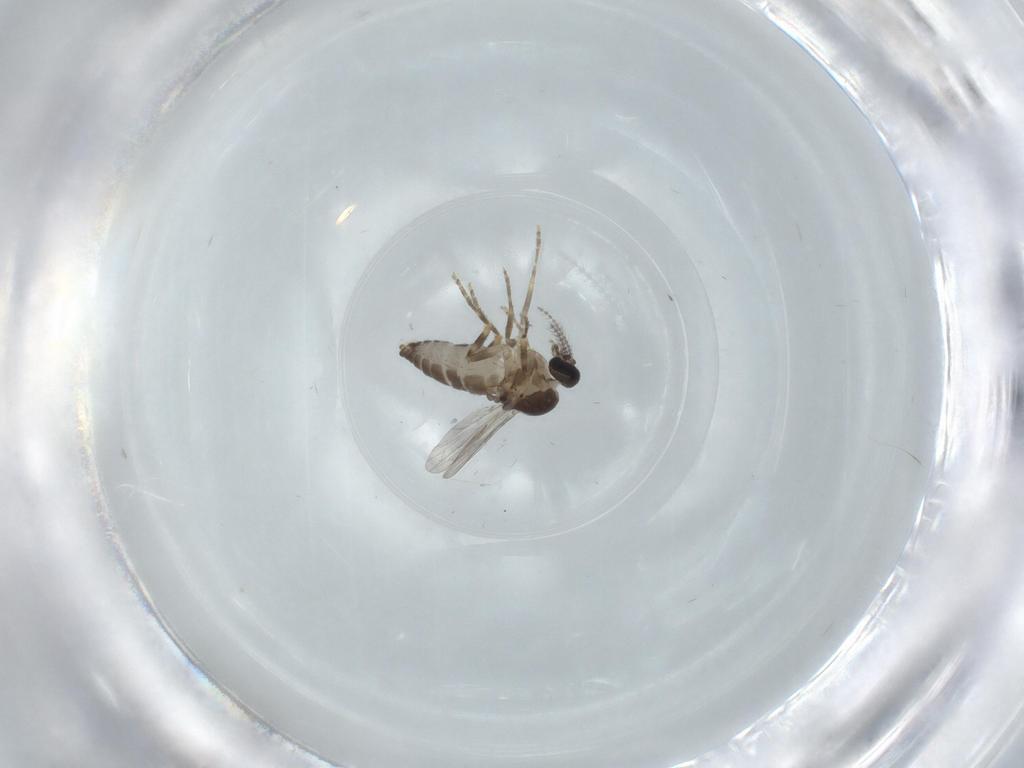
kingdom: Animalia
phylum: Arthropoda
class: Insecta
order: Diptera
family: Ceratopogonidae
